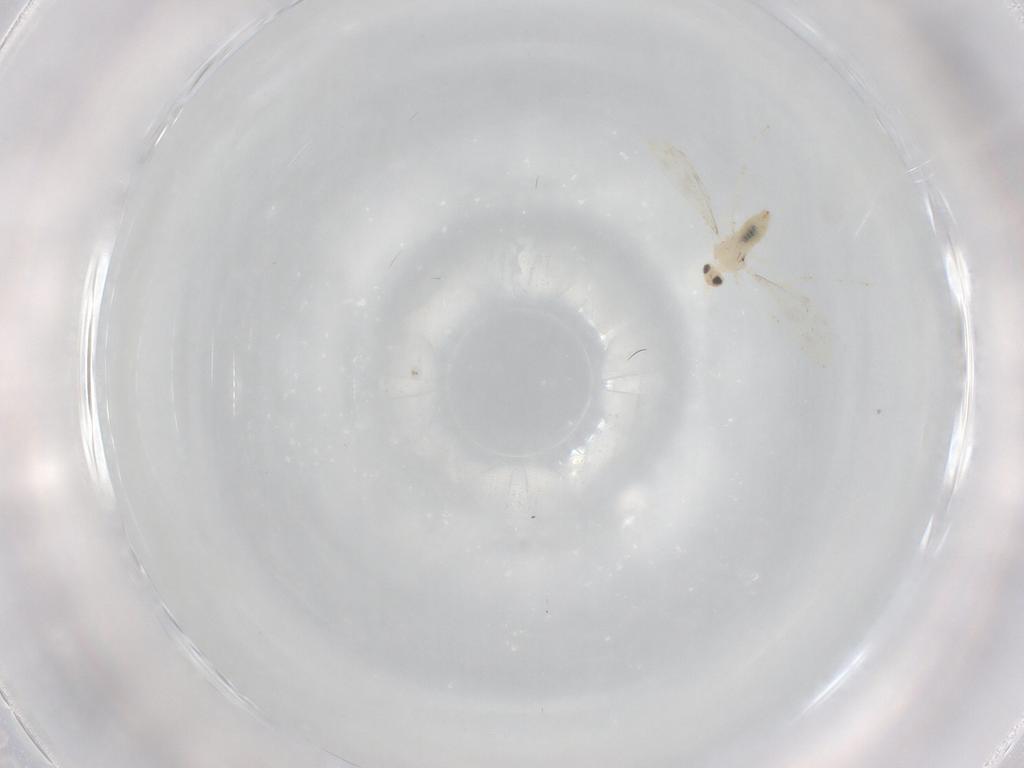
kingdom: Animalia
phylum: Arthropoda
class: Insecta
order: Diptera
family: Cecidomyiidae
